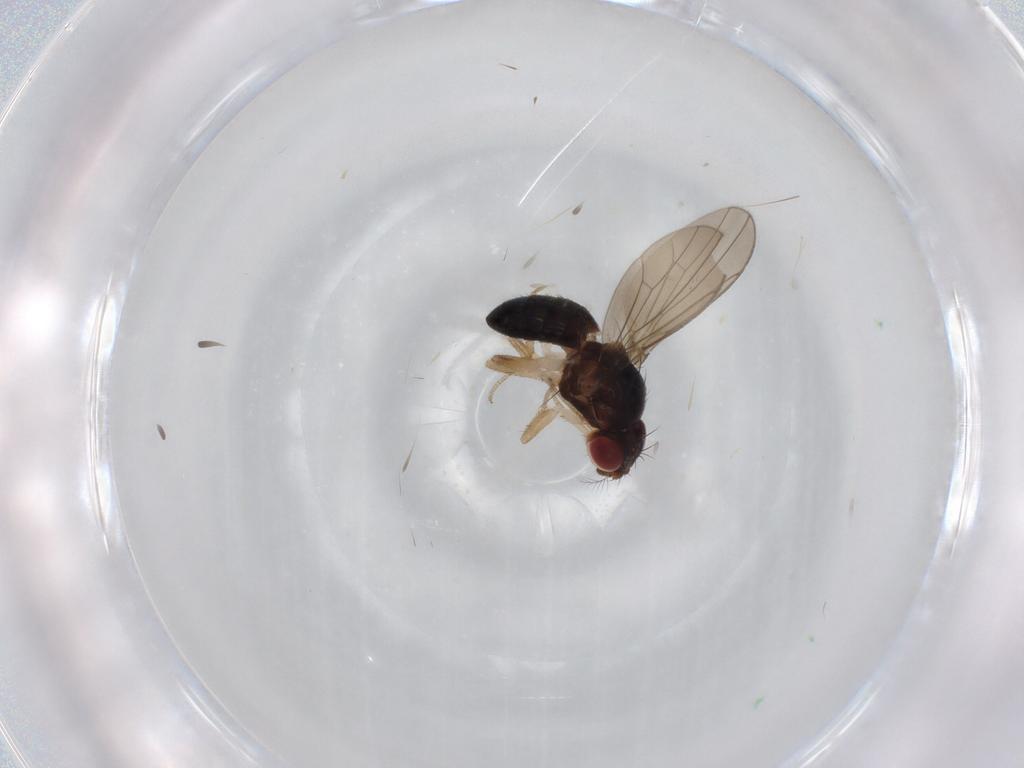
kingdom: Animalia
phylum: Arthropoda
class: Insecta
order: Diptera
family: Drosophilidae
